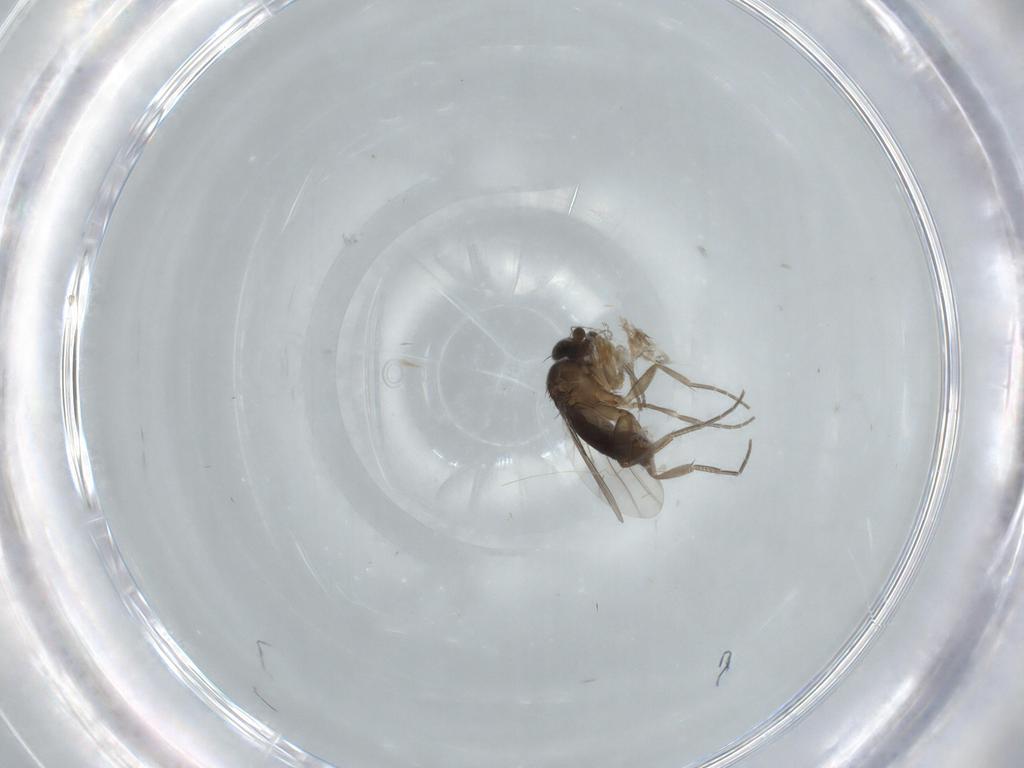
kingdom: Animalia
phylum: Arthropoda
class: Insecta
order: Diptera
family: Phoridae
